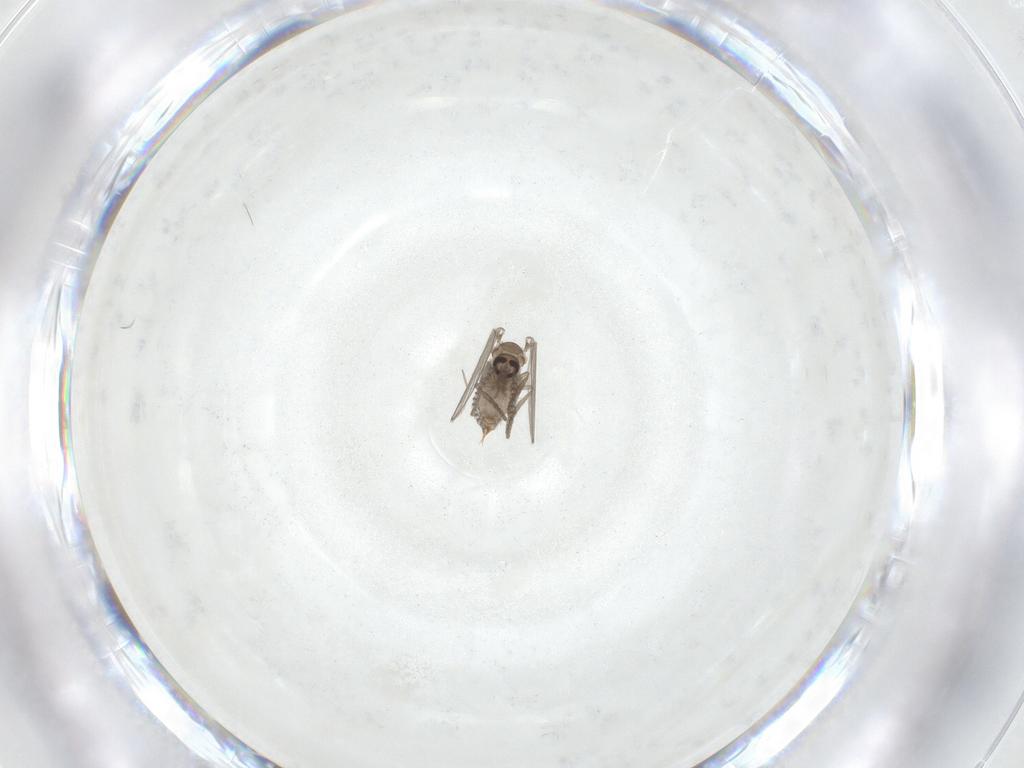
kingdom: Animalia
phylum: Arthropoda
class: Insecta
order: Diptera
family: Psychodidae
